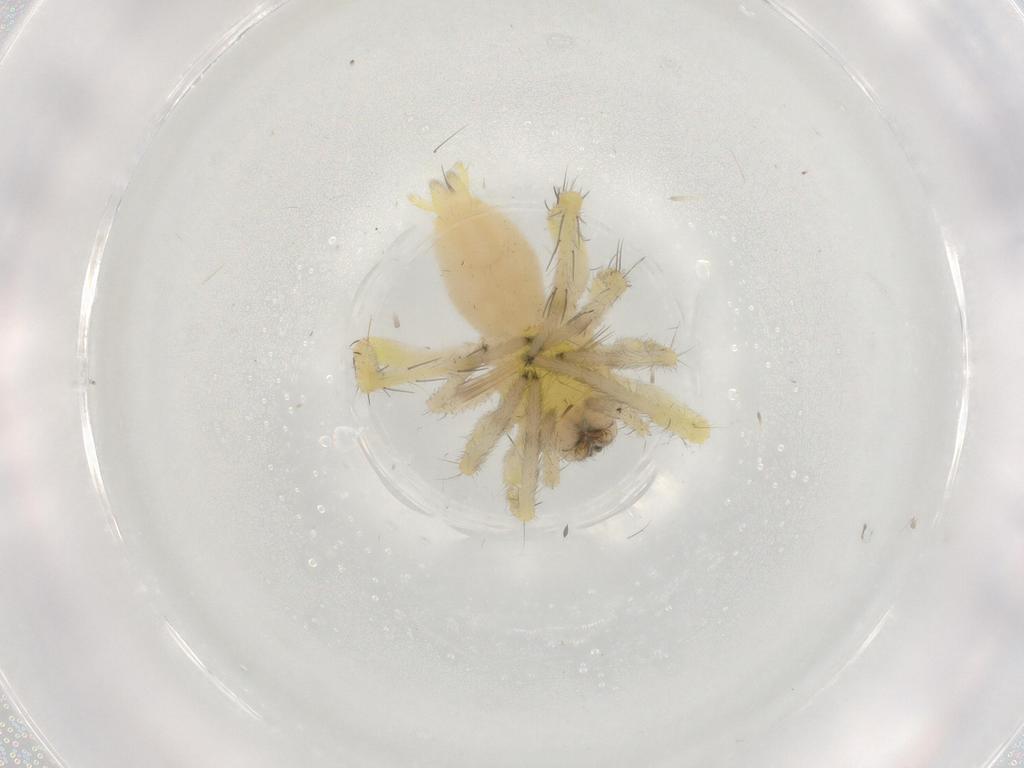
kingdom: Animalia
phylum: Arthropoda
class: Arachnida
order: Araneae
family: Anyphaenidae
